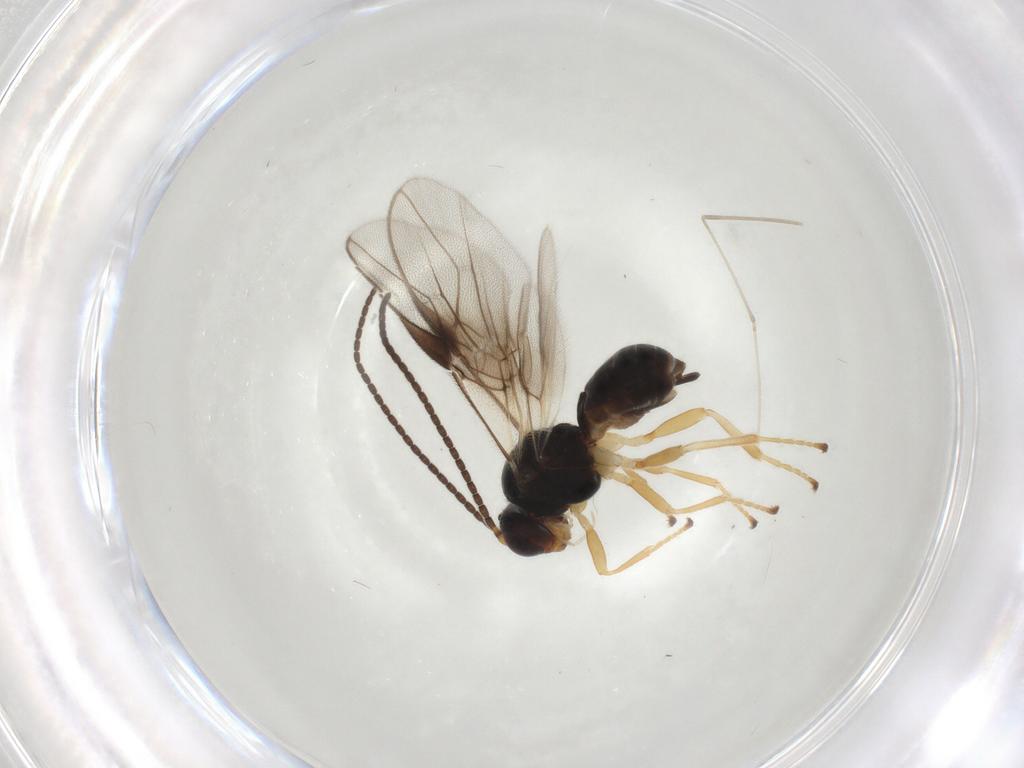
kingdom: Animalia
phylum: Arthropoda
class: Insecta
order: Hymenoptera
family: Braconidae
